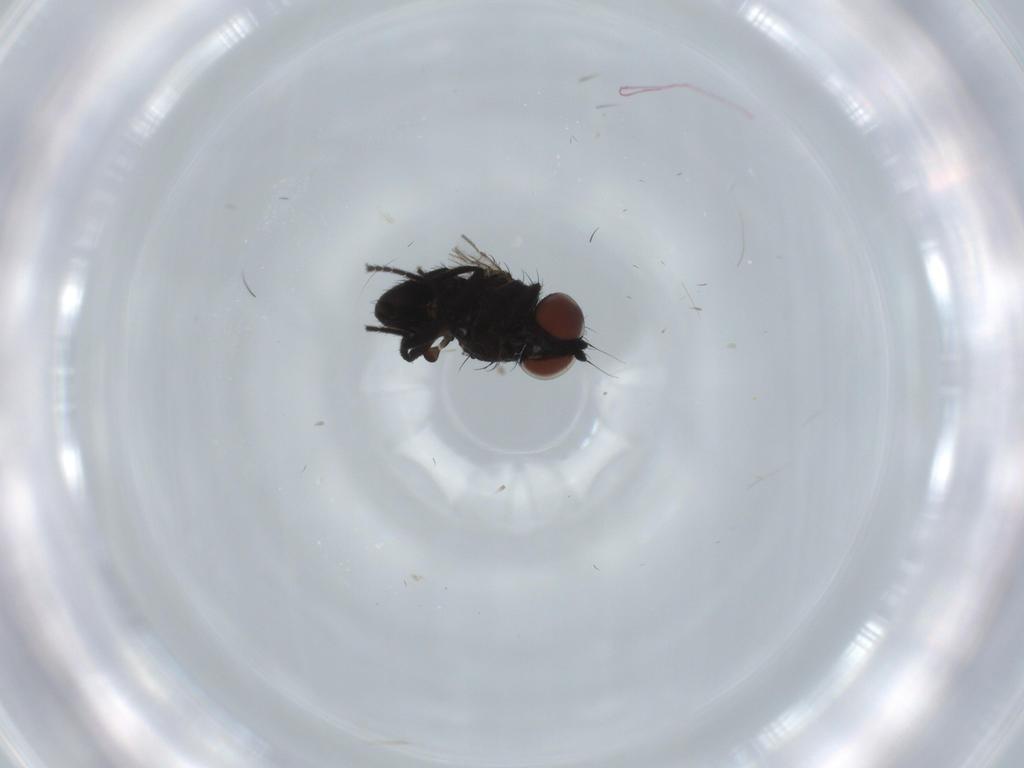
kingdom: Animalia
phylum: Arthropoda
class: Insecta
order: Diptera
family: Milichiidae
